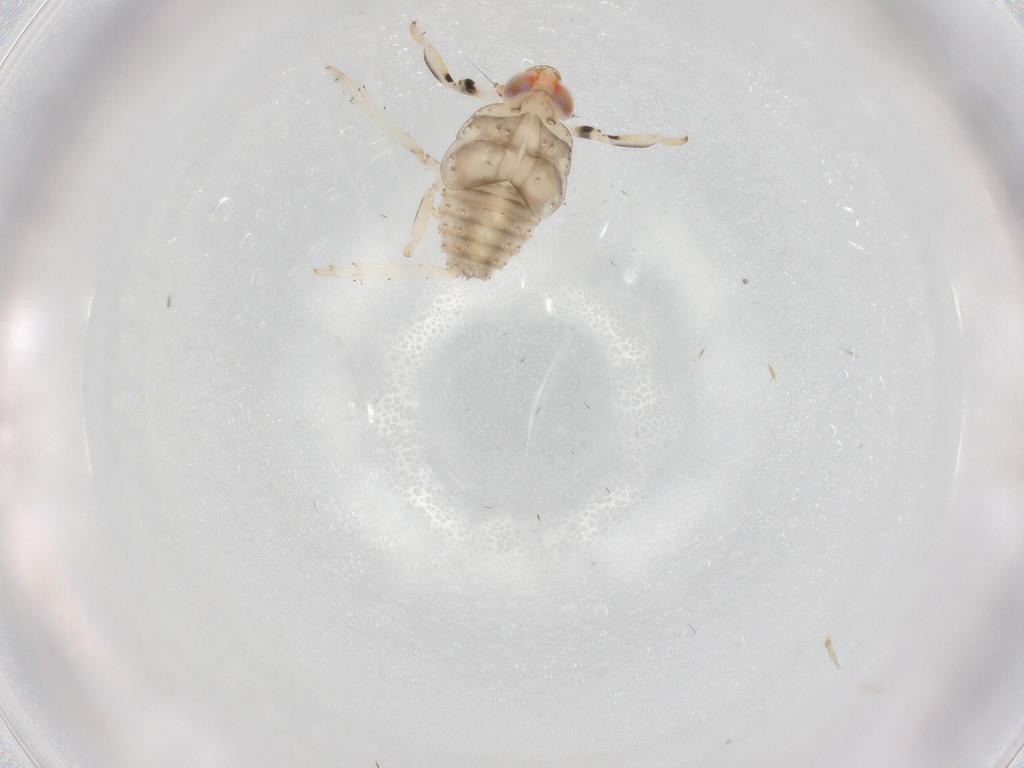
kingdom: Animalia
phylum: Arthropoda
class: Insecta
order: Hemiptera
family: Issidae
